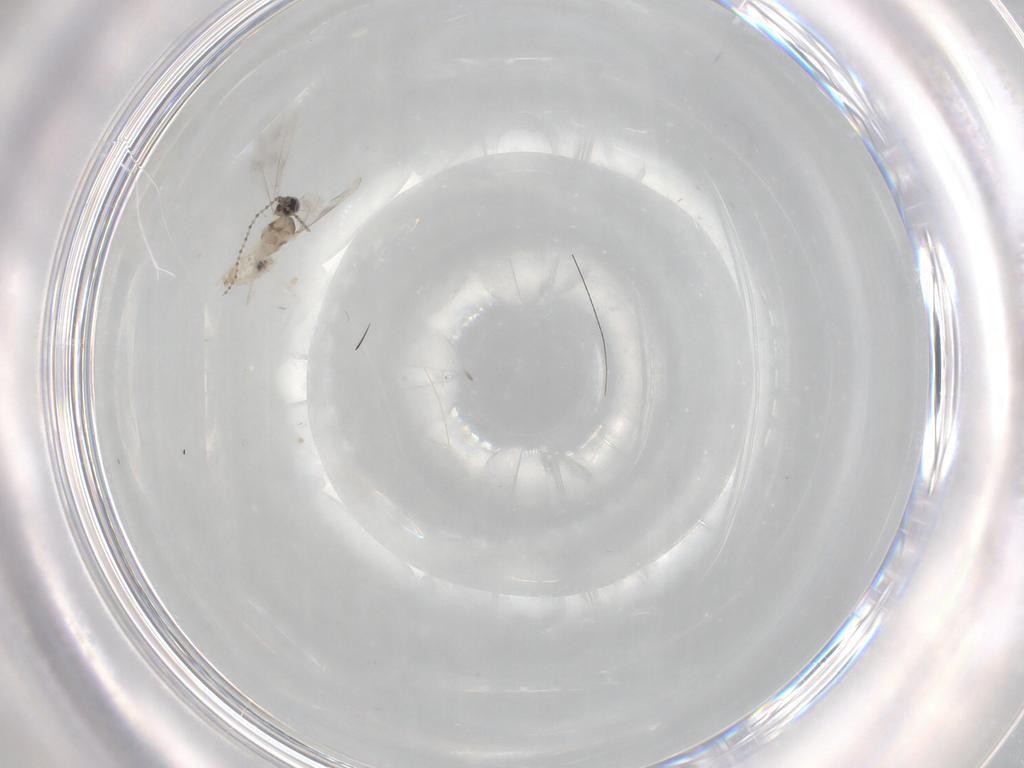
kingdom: Animalia
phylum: Arthropoda
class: Insecta
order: Diptera
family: Cecidomyiidae
